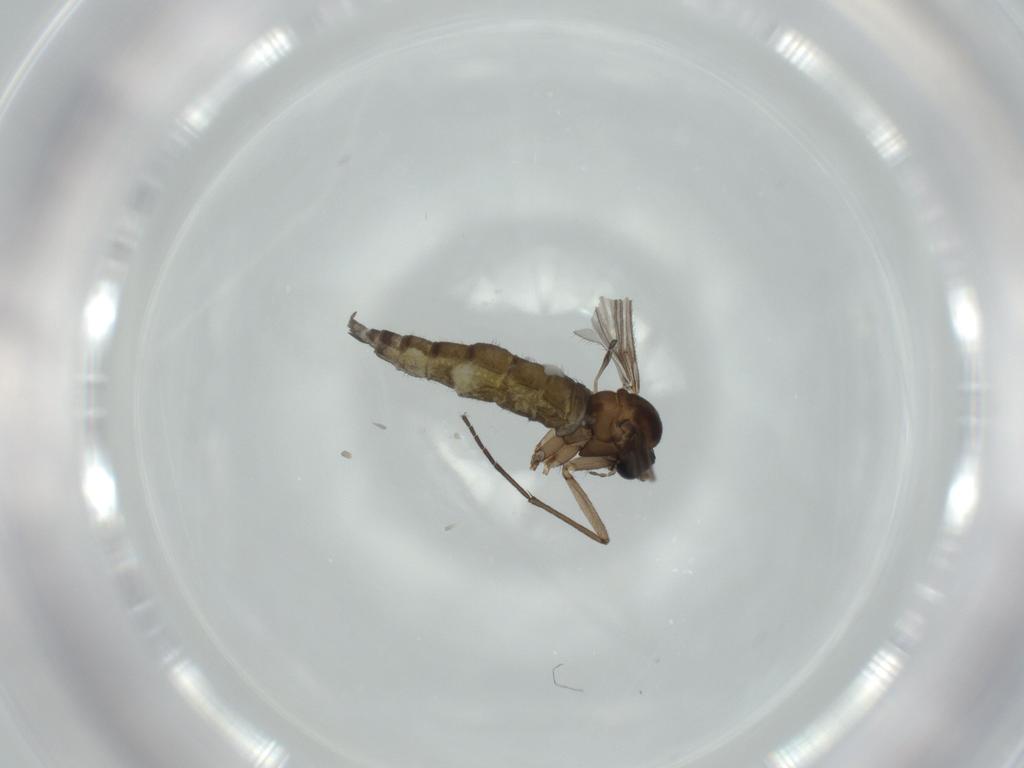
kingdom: Animalia
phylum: Arthropoda
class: Insecta
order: Diptera
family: Sciaridae
